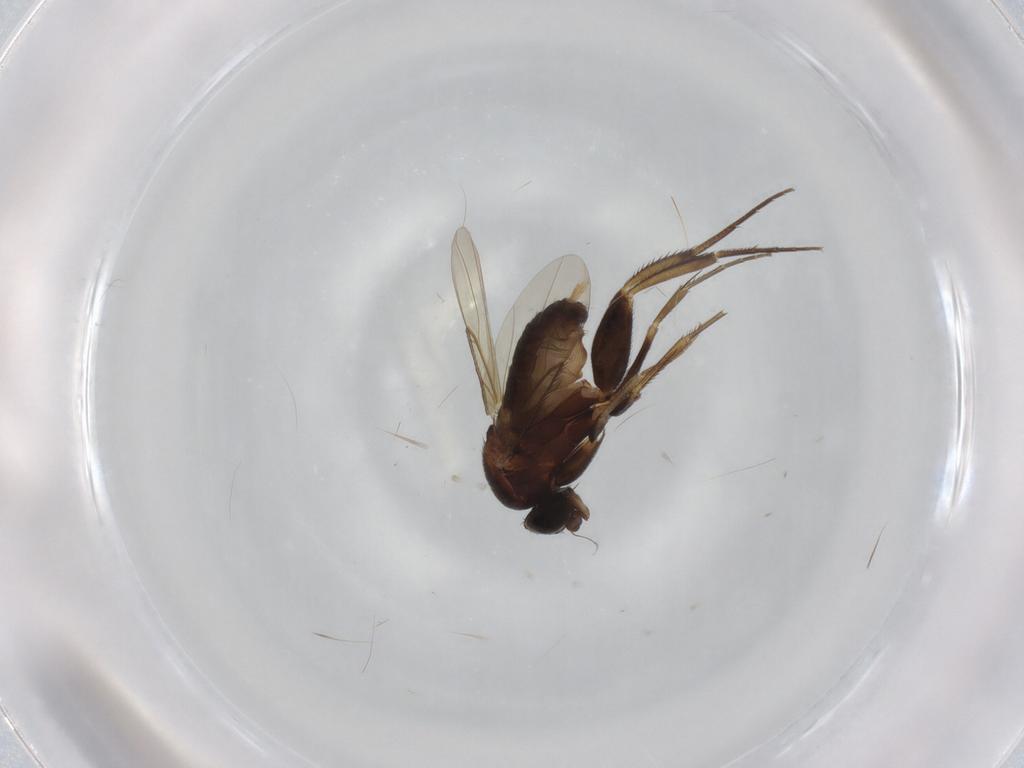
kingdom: Animalia
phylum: Arthropoda
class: Insecta
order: Diptera
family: Phoridae
